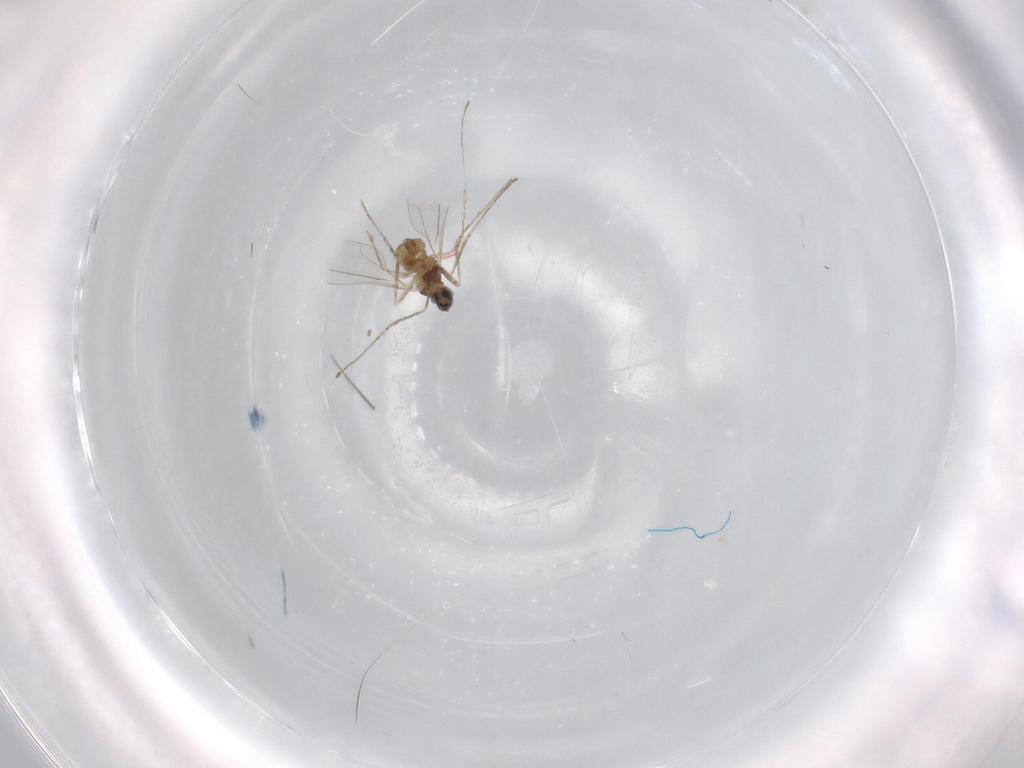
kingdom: Animalia
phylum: Arthropoda
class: Insecta
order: Diptera
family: Cecidomyiidae
